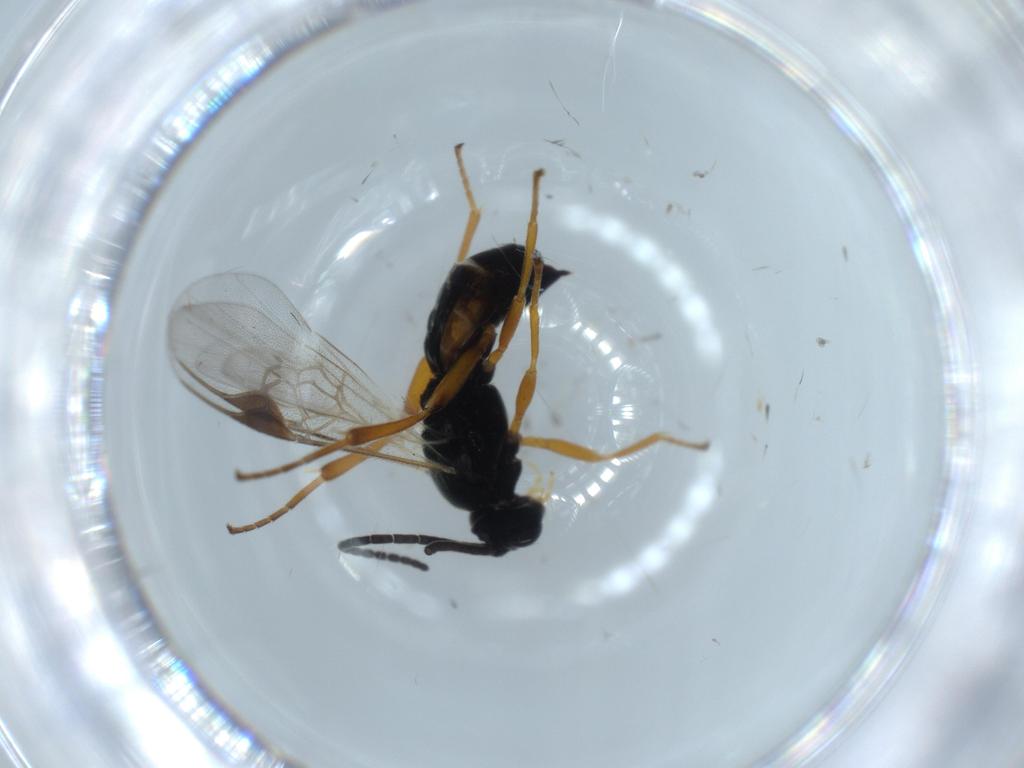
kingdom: Animalia
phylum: Arthropoda
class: Insecta
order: Hymenoptera
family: Braconidae
